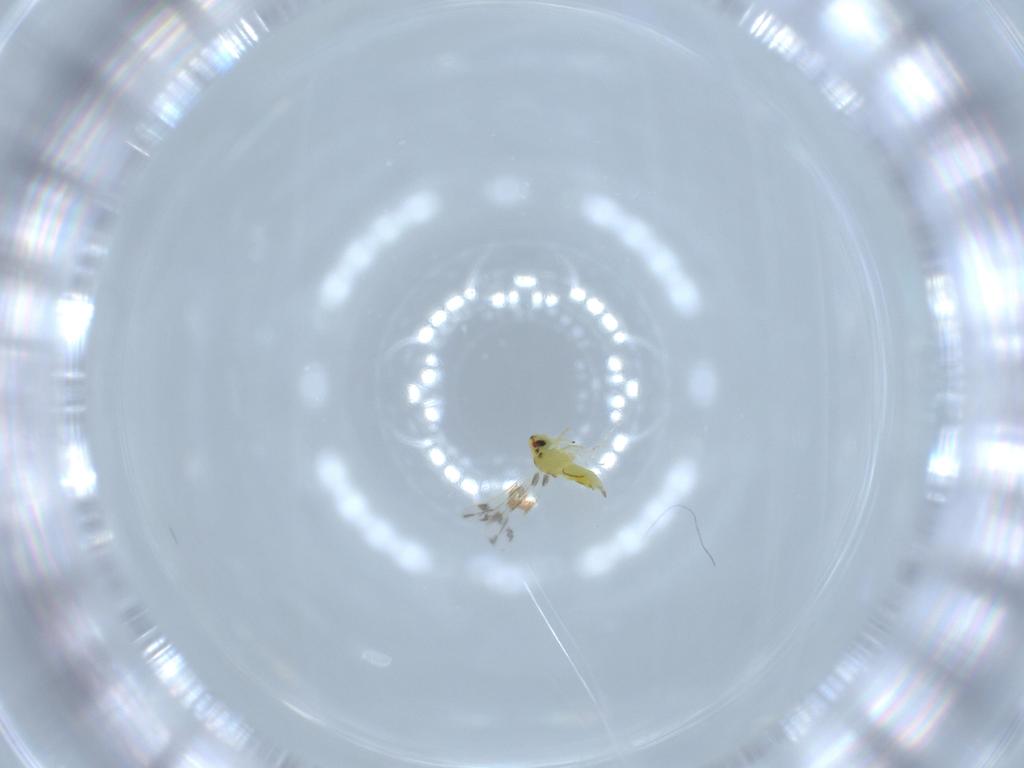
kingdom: Animalia
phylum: Arthropoda
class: Insecta
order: Hemiptera
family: Aleyrodidae
